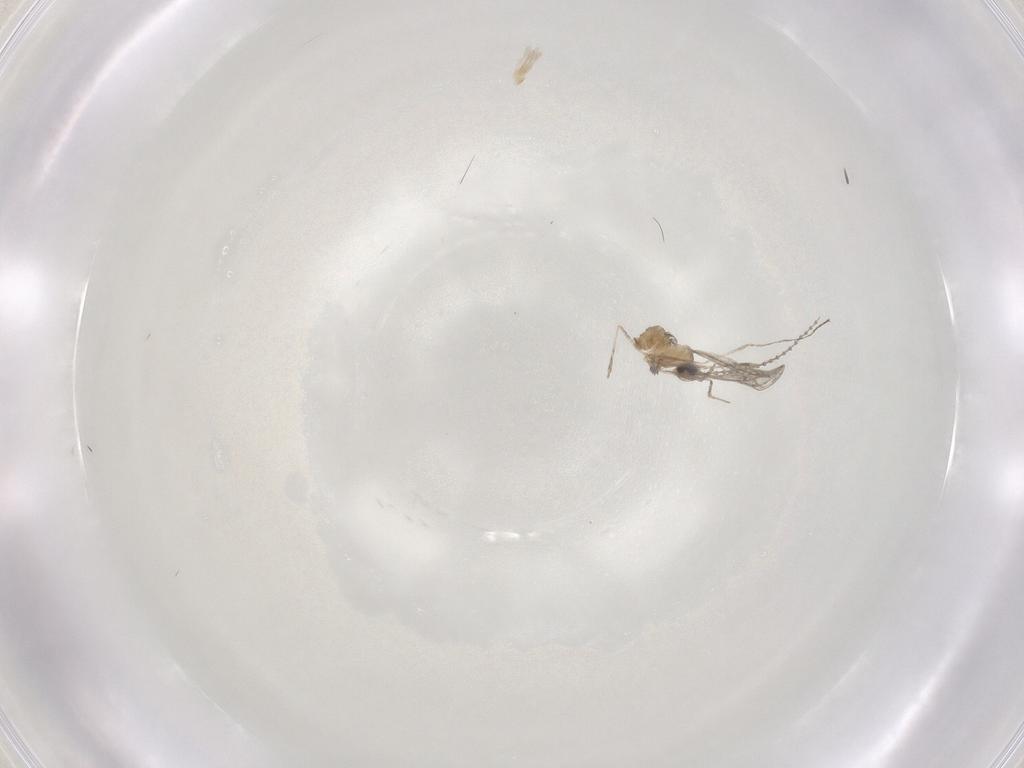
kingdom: Animalia
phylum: Arthropoda
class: Insecta
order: Diptera
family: Cecidomyiidae
